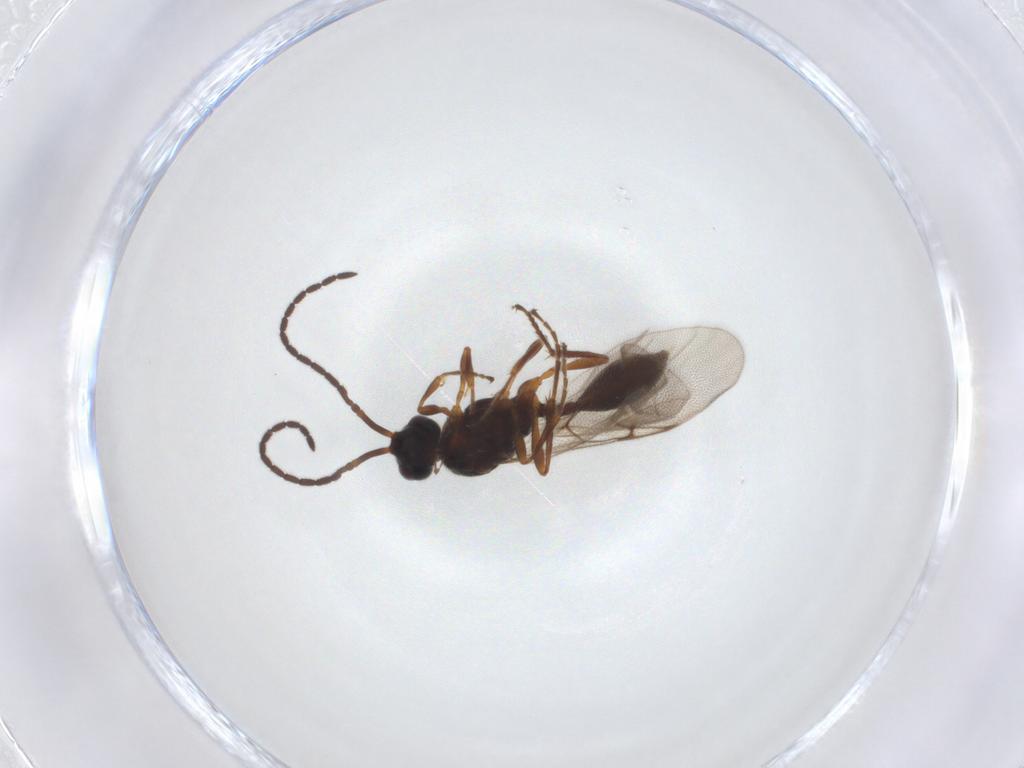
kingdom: Animalia
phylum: Arthropoda
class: Insecta
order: Hymenoptera
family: Diapriidae
